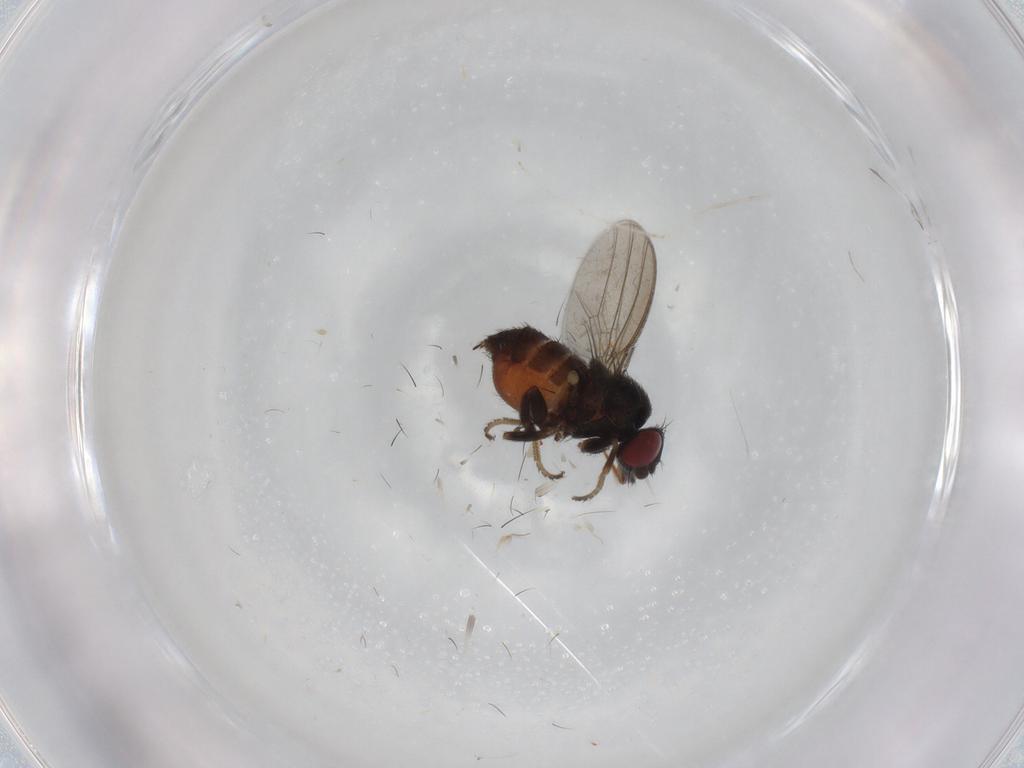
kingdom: Animalia
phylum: Arthropoda
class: Insecta
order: Diptera
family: Milichiidae
